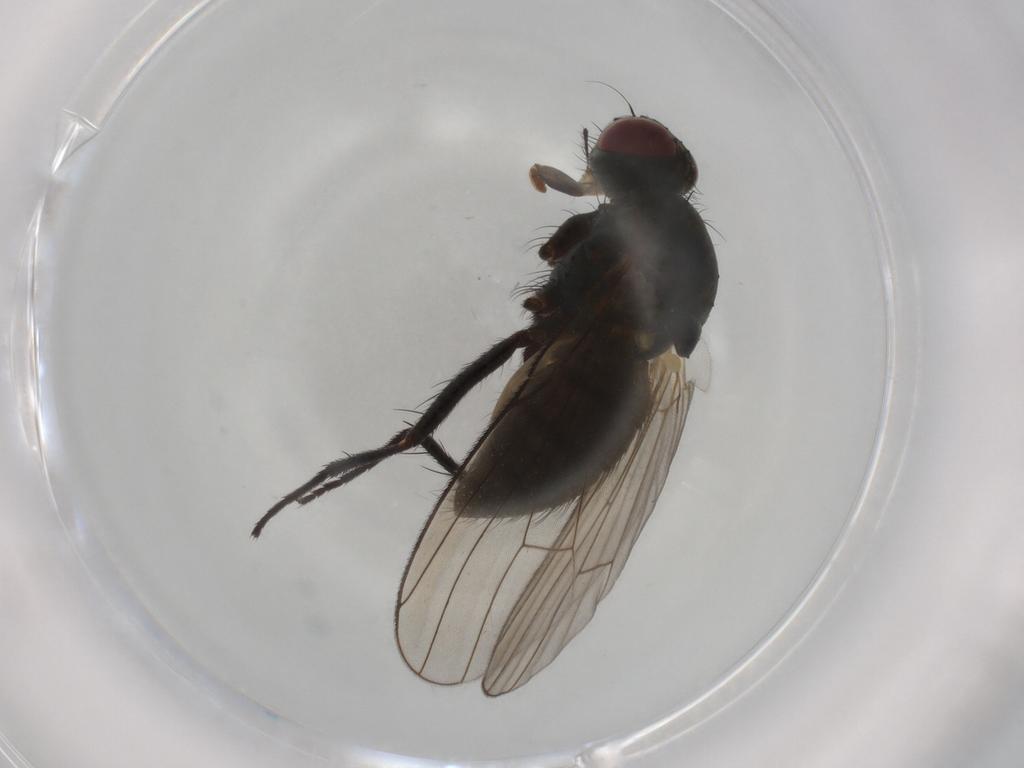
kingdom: Animalia
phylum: Arthropoda
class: Insecta
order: Diptera
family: Muscidae
